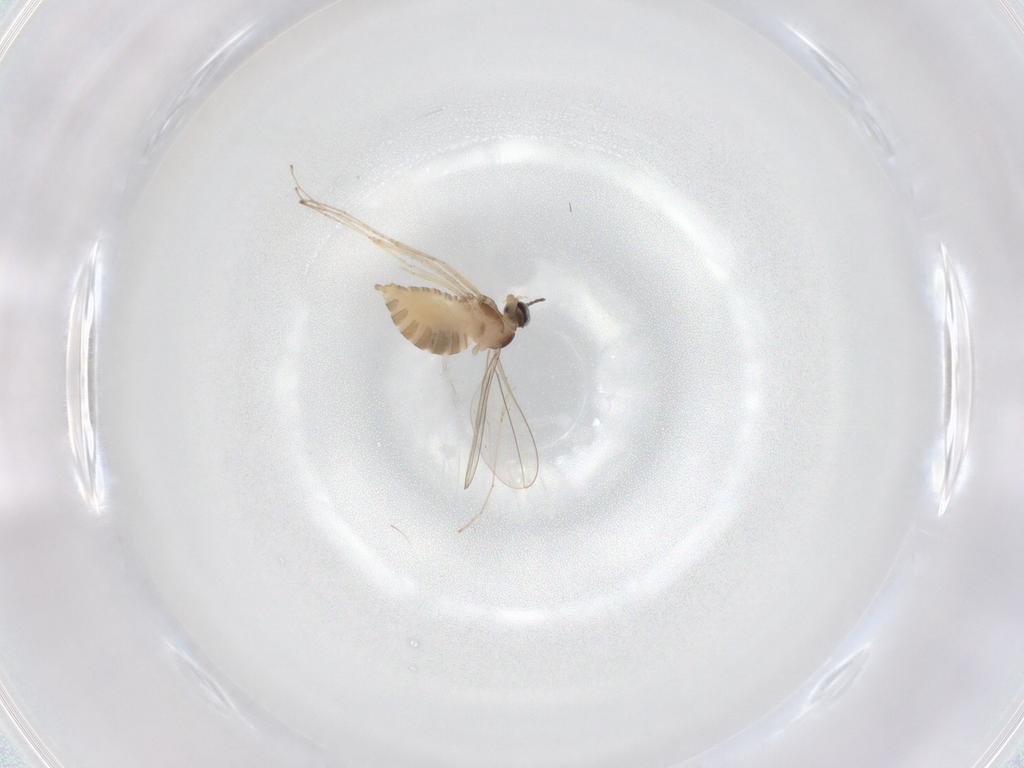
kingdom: Animalia
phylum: Arthropoda
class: Insecta
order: Diptera
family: Cecidomyiidae
